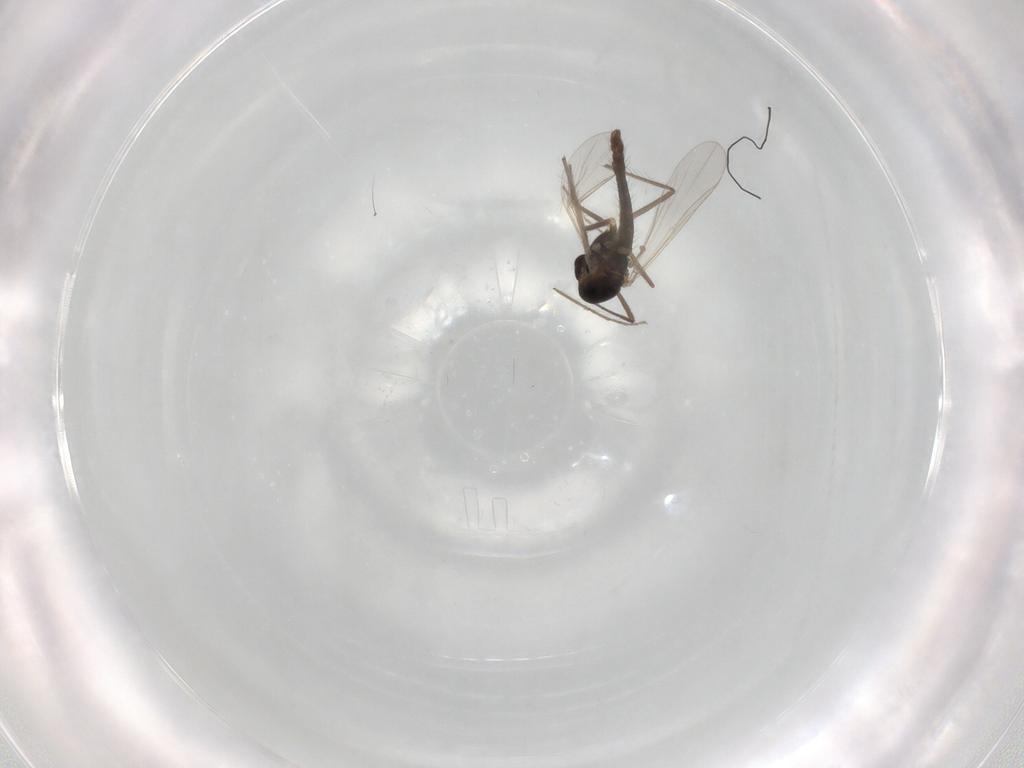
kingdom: Animalia
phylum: Arthropoda
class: Insecta
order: Diptera
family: Chironomidae
